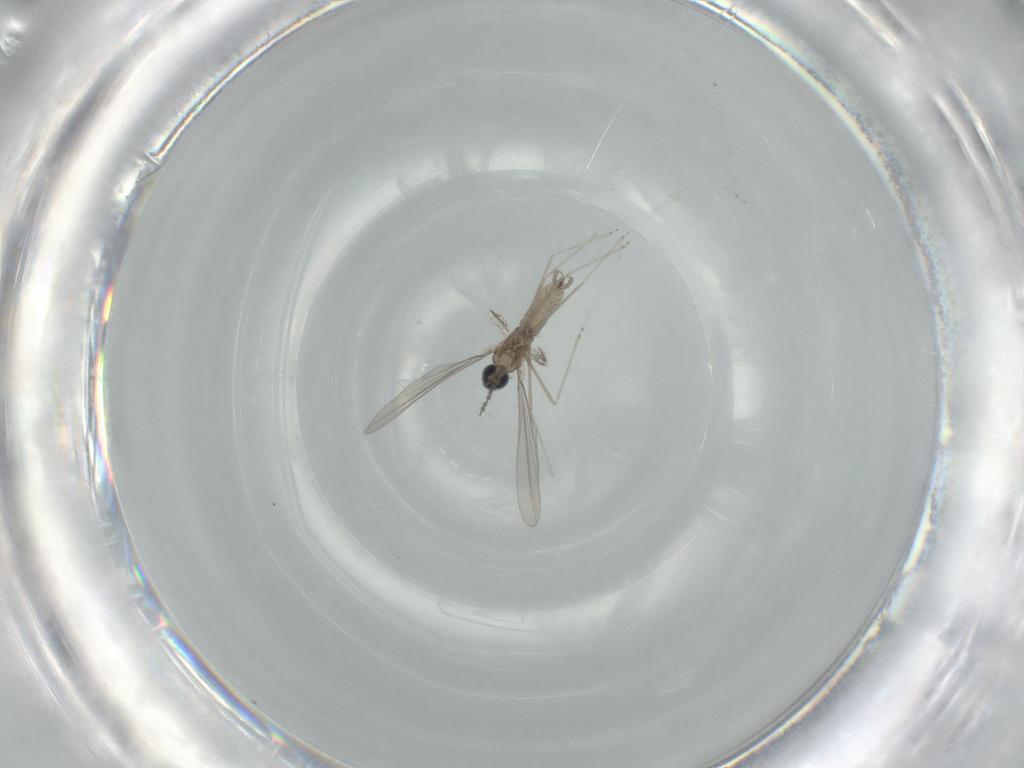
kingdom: Animalia
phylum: Arthropoda
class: Insecta
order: Diptera
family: Cecidomyiidae
